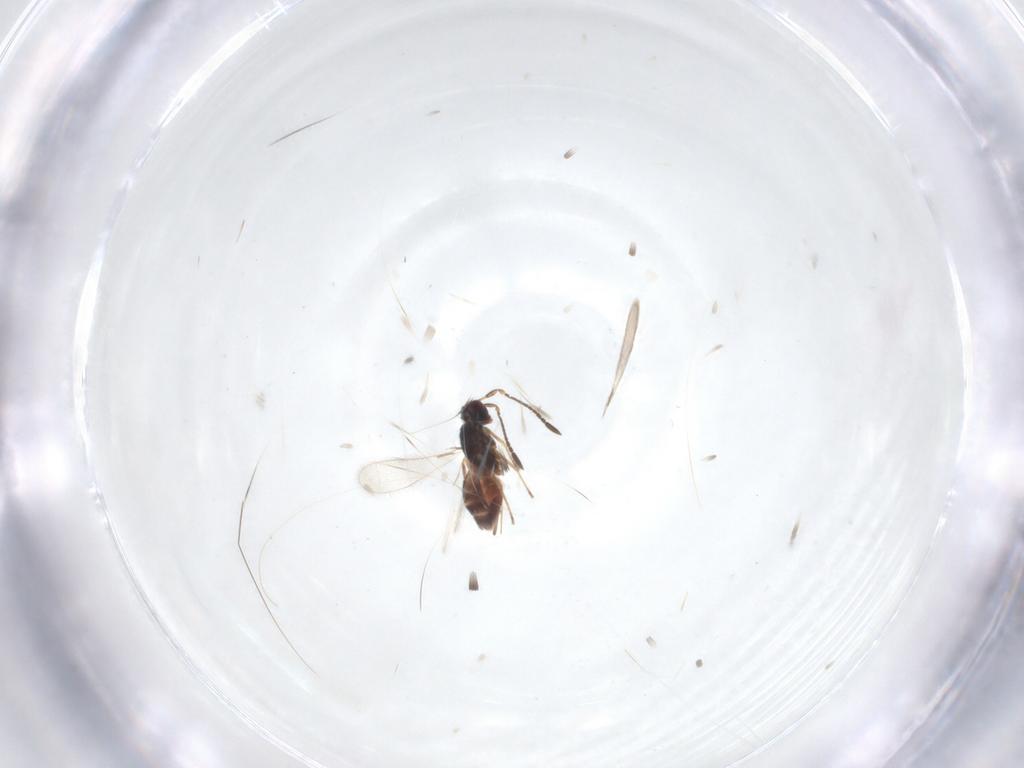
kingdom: Animalia
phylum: Arthropoda
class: Insecta
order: Hymenoptera
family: Mymaridae
